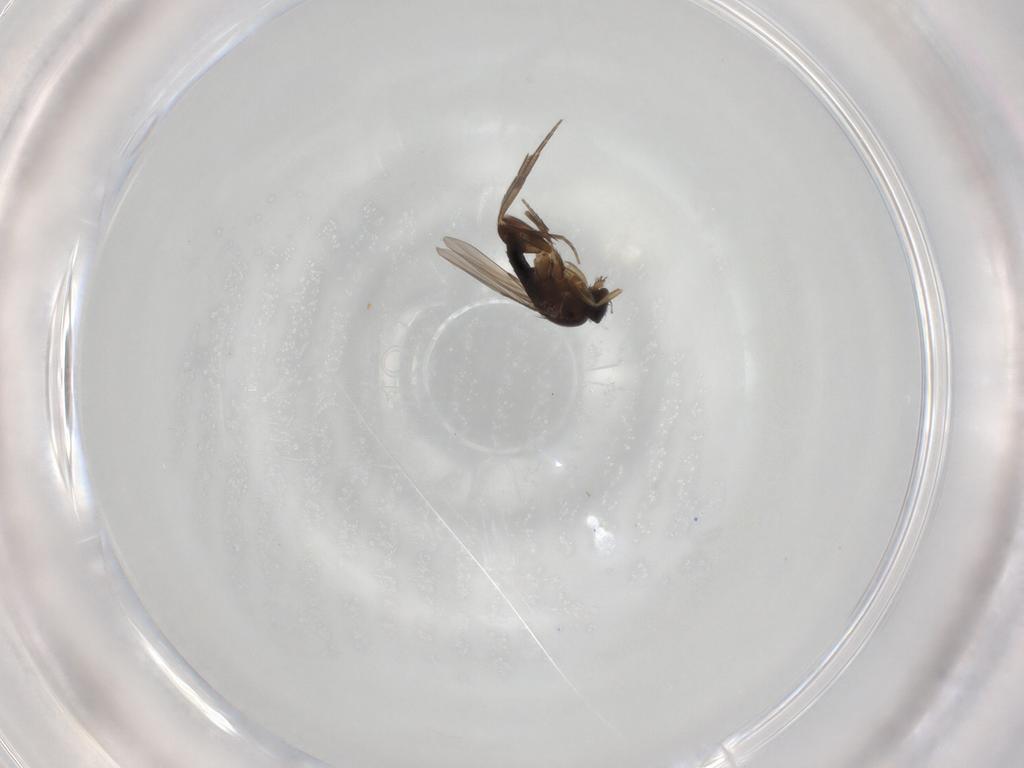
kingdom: Animalia
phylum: Arthropoda
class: Insecta
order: Diptera
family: Phoridae
